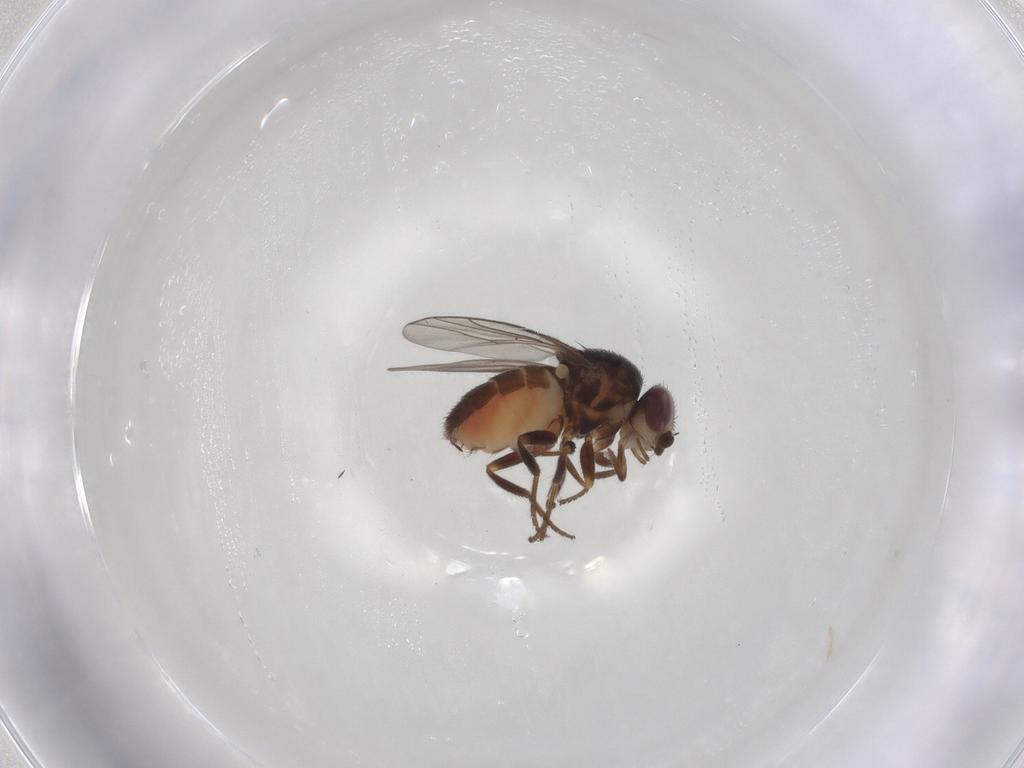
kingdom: Animalia
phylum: Arthropoda
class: Insecta
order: Diptera
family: Chloropidae
